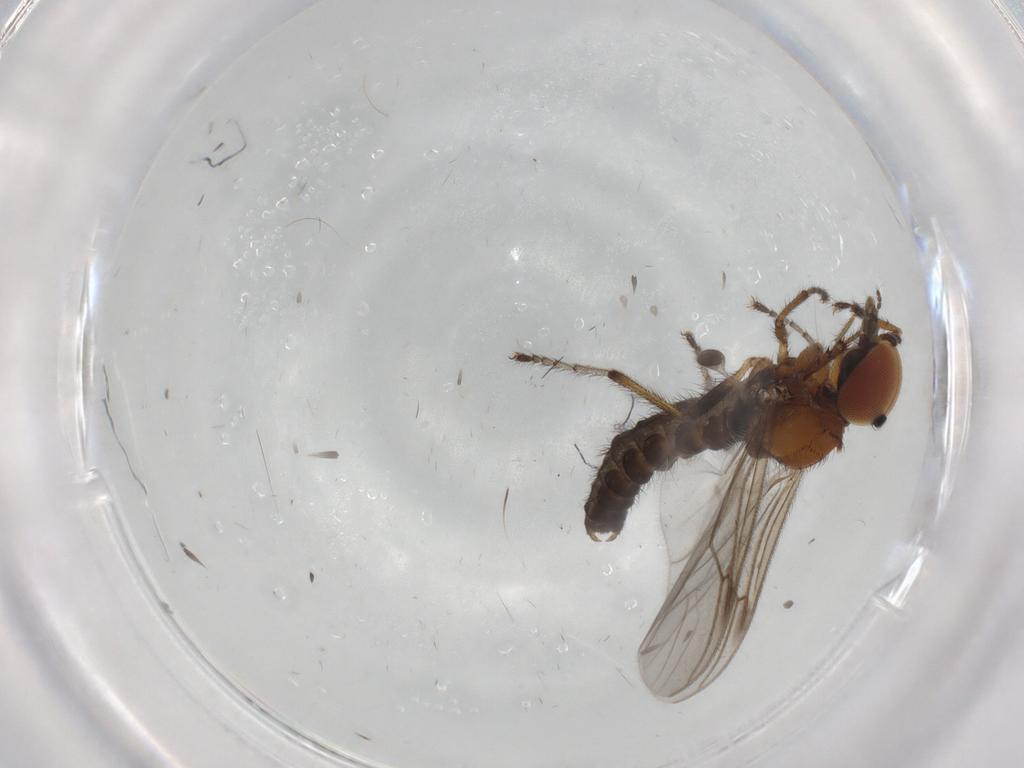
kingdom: Animalia
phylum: Arthropoda
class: Insecta
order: Diptera
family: Bibionidae
